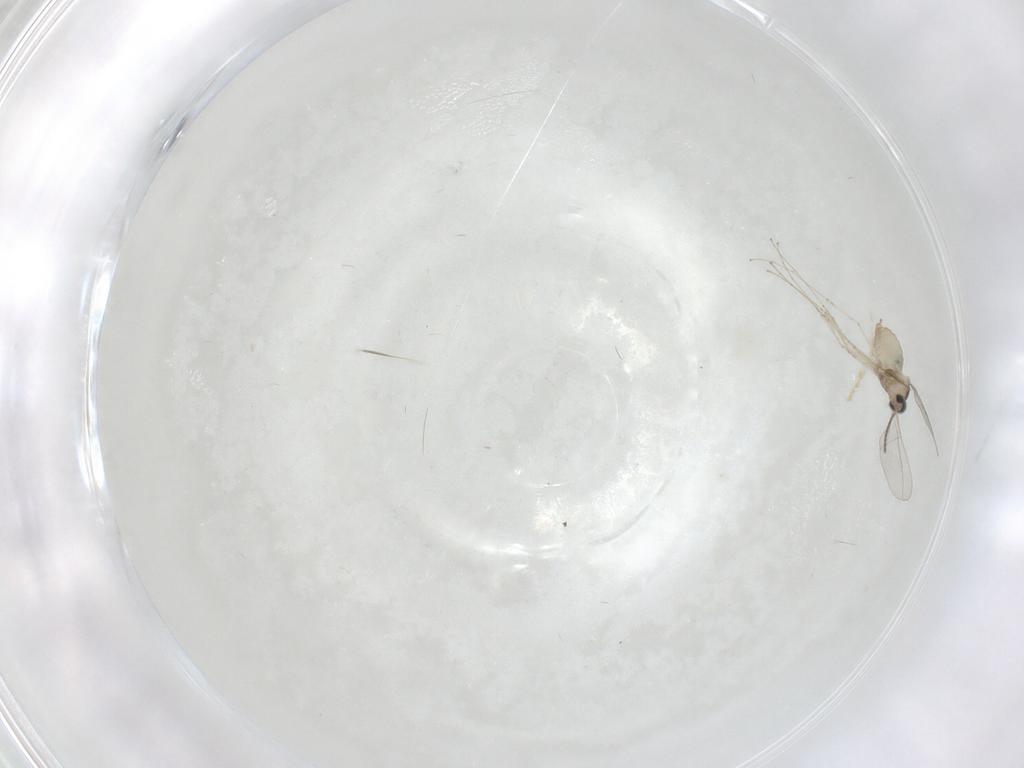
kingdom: Animalia
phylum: Arthropoda
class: Insecta
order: Diptera
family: Cecidomyiidae
